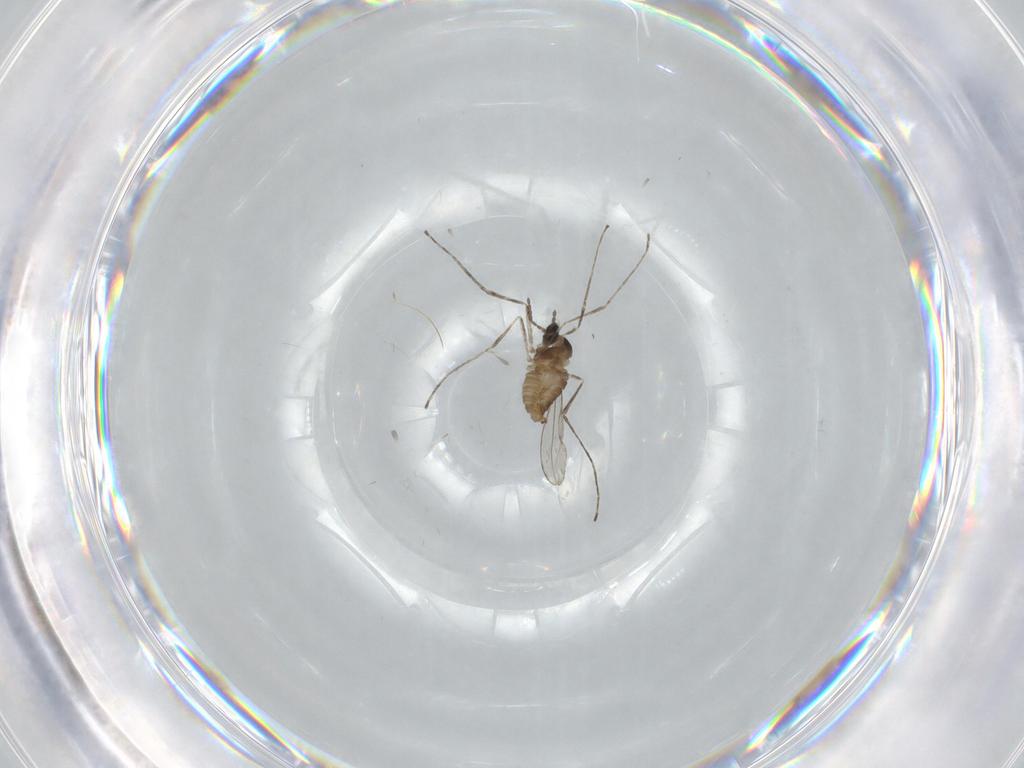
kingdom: Animalia
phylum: Arthropoda
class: Insecta
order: Diptera
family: Cecidomyiidae
